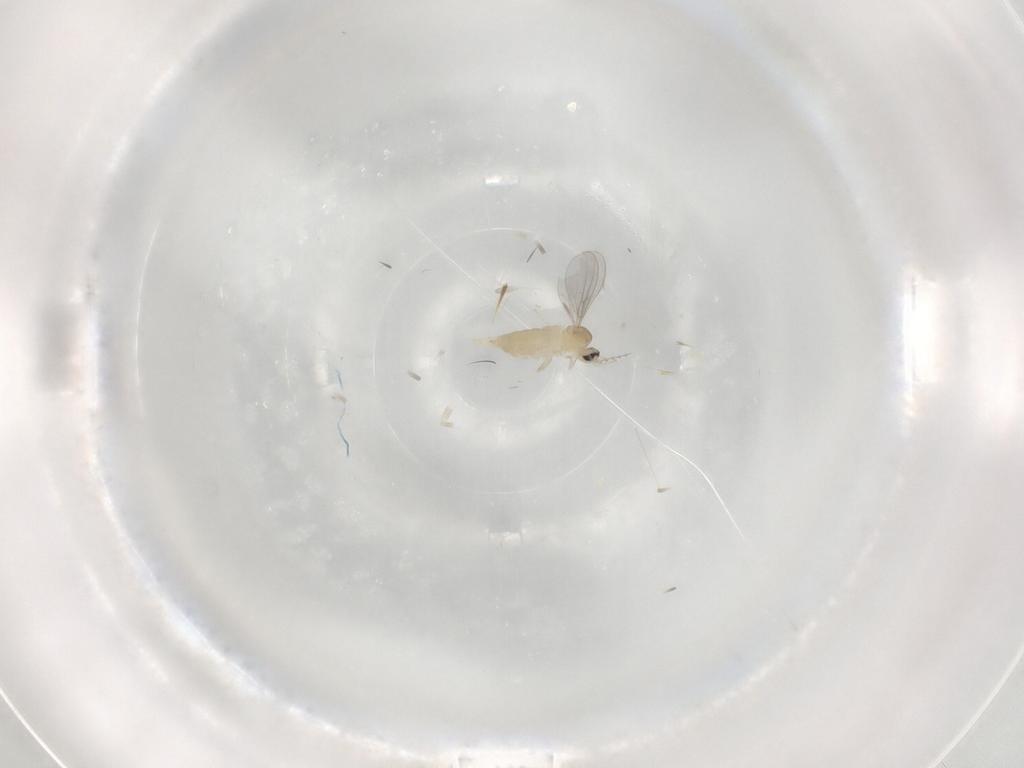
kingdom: Animalia
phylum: Arthropoda
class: Insecta
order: Diptera
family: Cecidomyiidae
